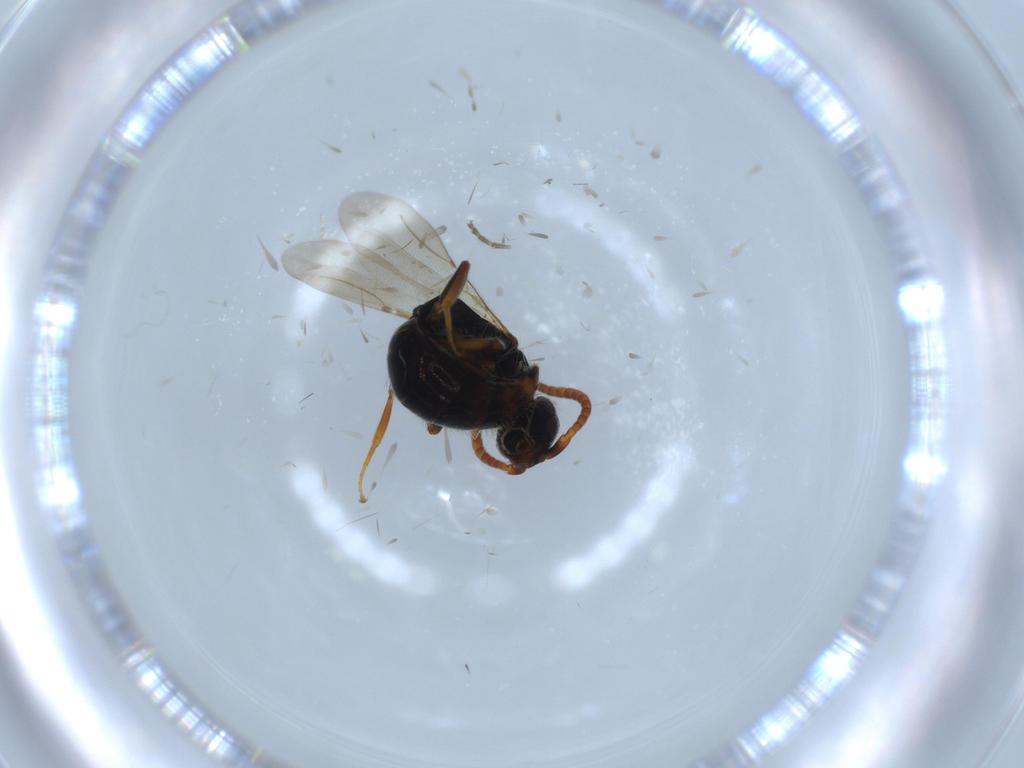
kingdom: Animalia
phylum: Arthropoda
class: Insecta
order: Hymenoptera
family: Bethylidae
